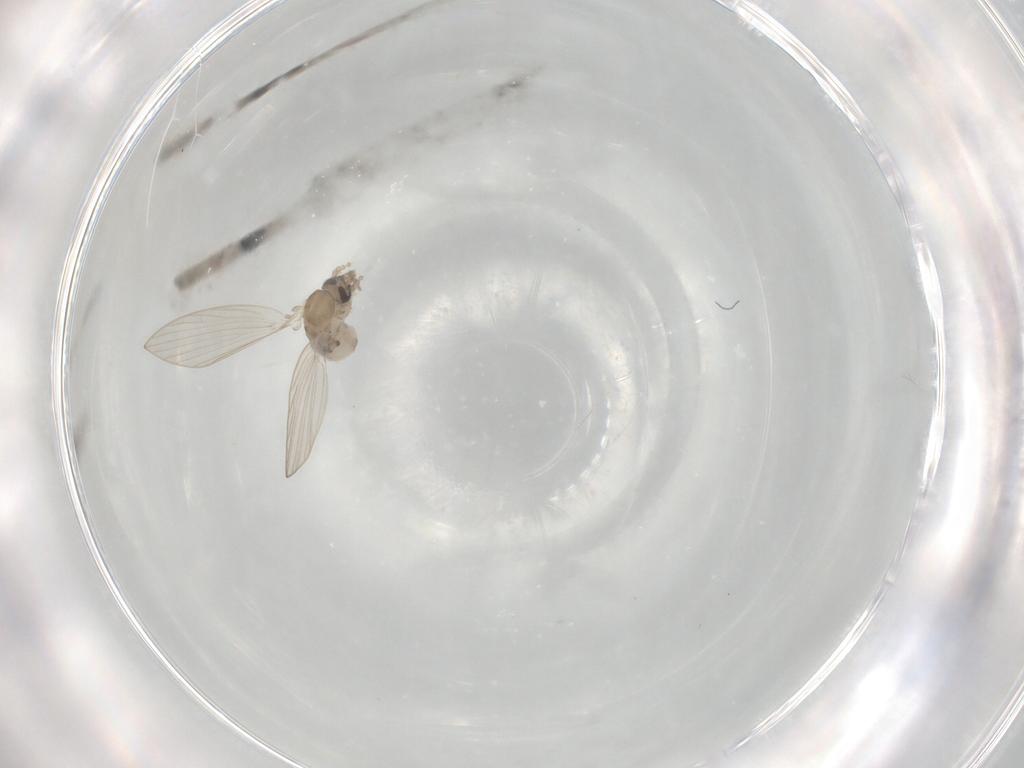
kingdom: Animalia
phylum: Arthropoda
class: Insecta
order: Diptera
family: Psychodidae
